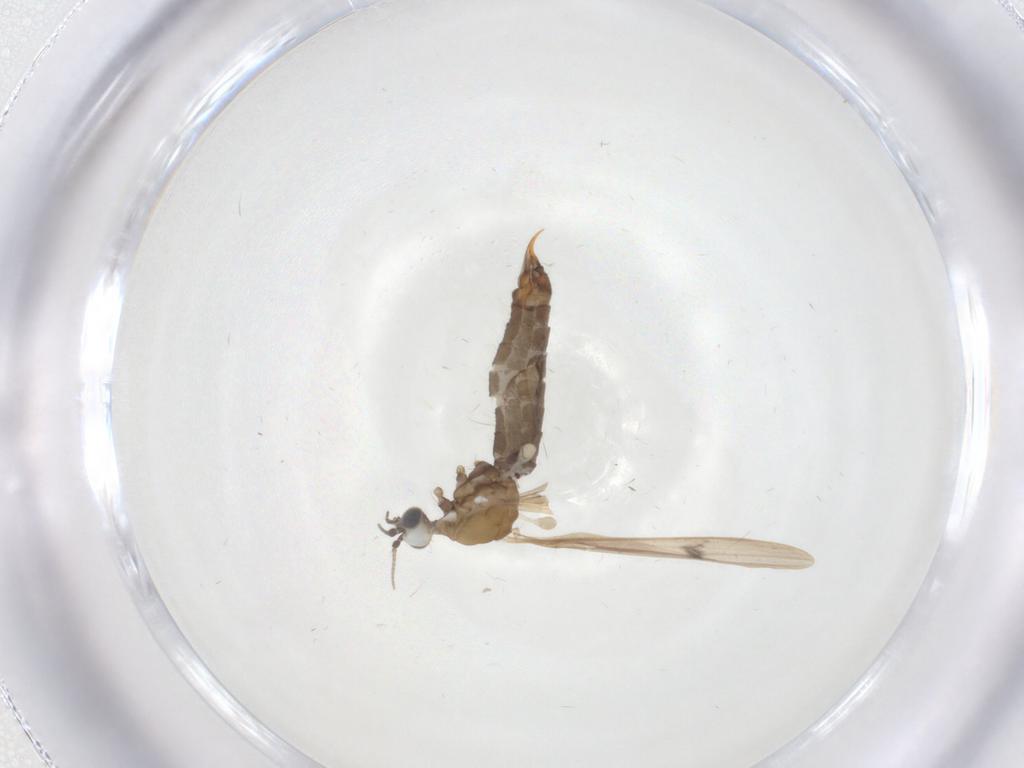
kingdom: Animalia
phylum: Arthropoda
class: Insecta
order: Diptera
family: Limoniidae
